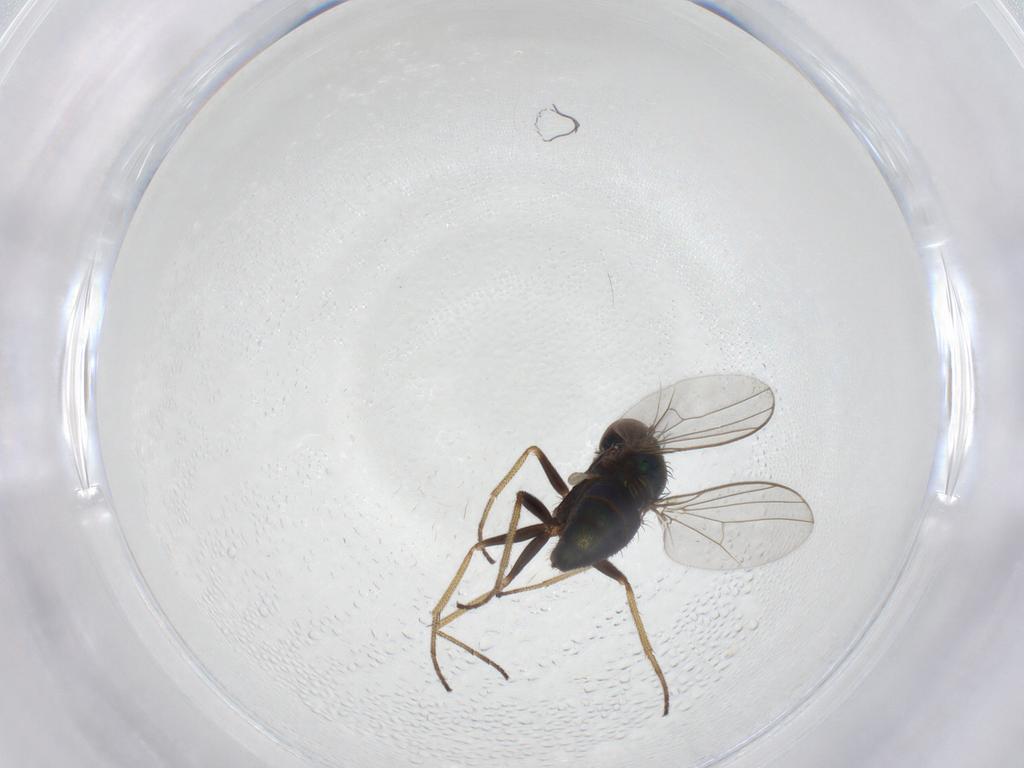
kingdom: Animalia
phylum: Arthropoda
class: Insecta
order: Diptera
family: Dolichopodidae
